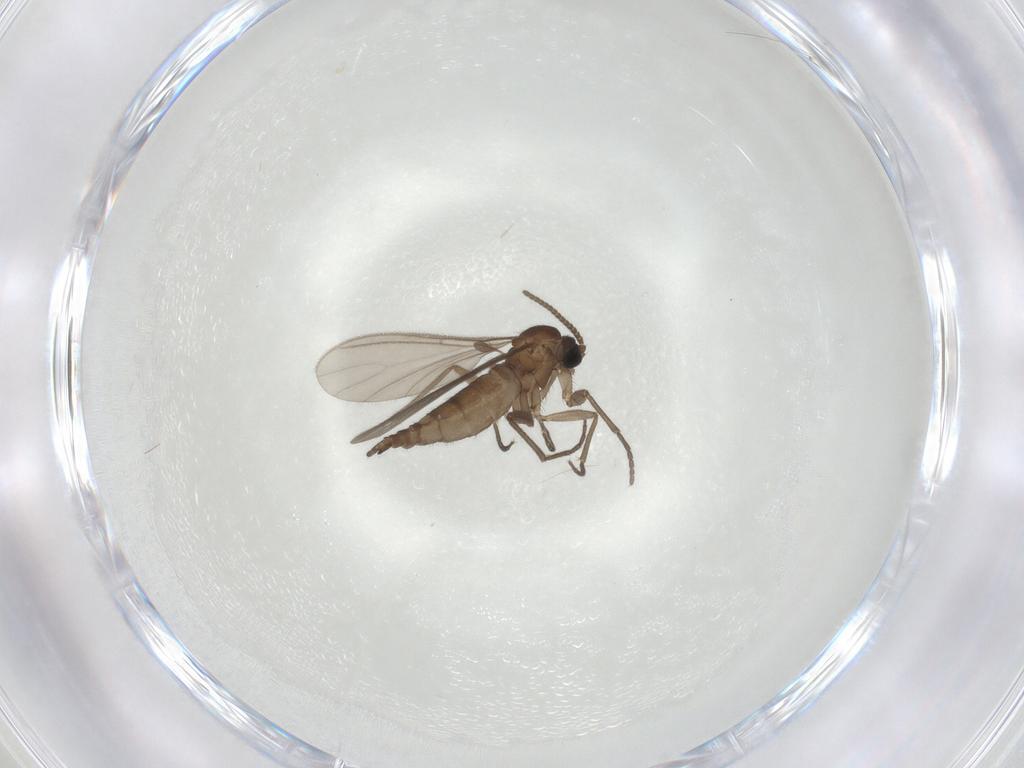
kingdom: Animalia
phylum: Arthropoda
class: Insecta
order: Diptera
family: Sciaridae
